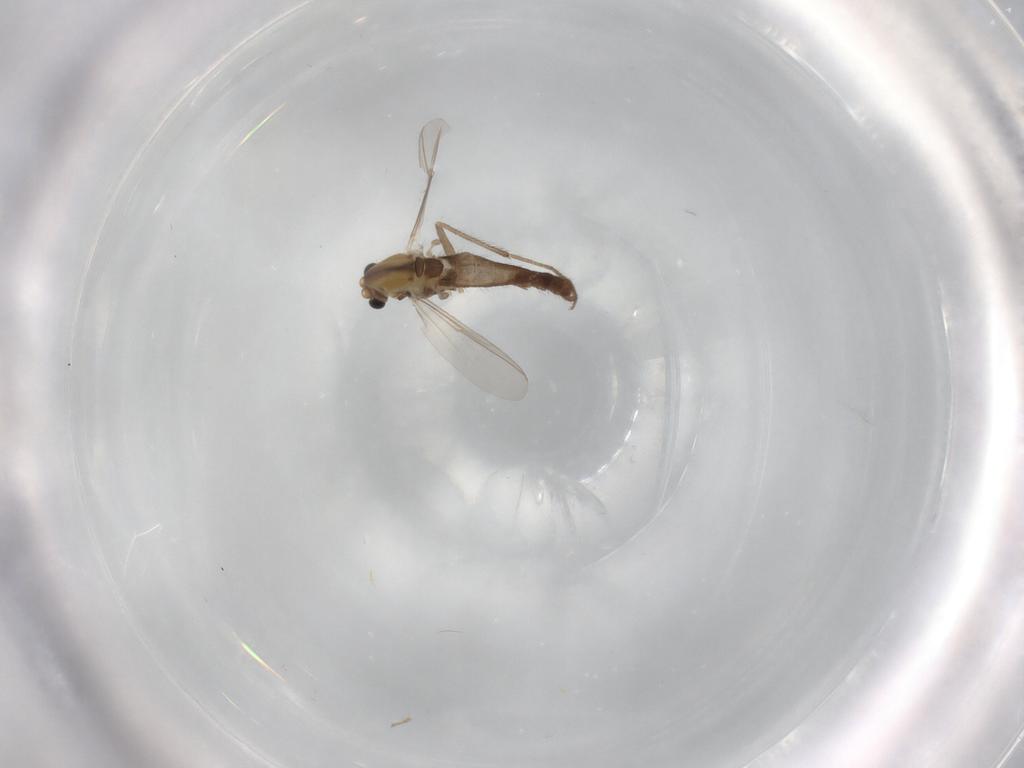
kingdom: Animalia
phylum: Arthropoda
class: Insecta
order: Diptera
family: Chironomidae
